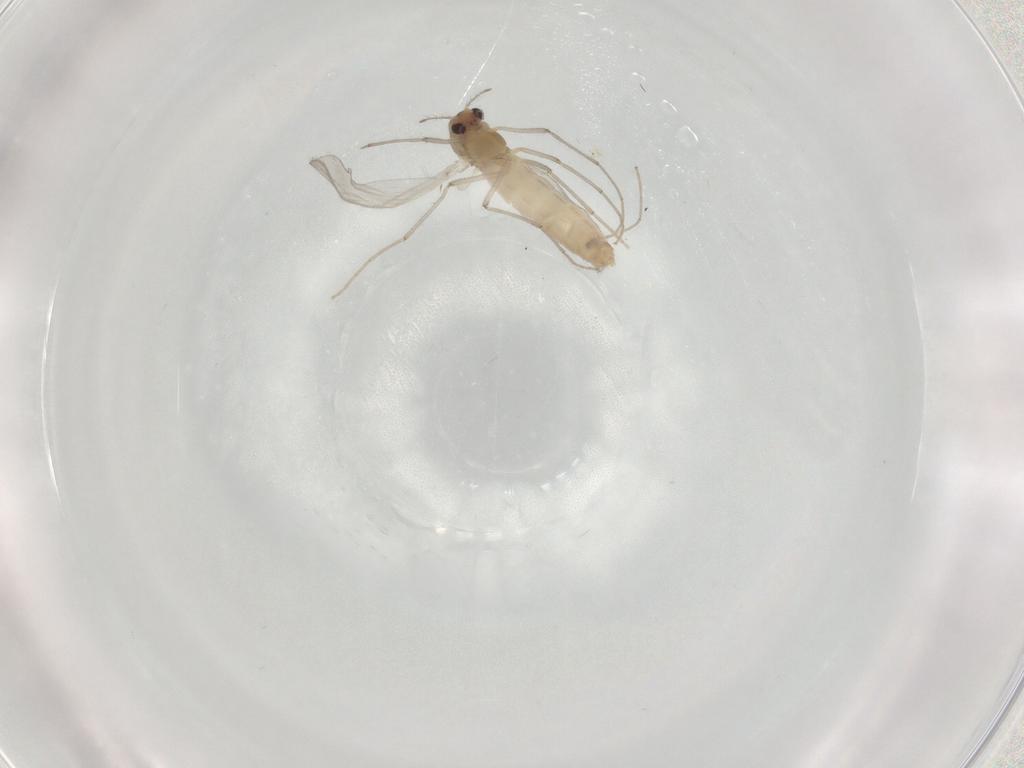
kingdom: Animalia
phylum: Arthropoda
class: Insecta
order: Diptera
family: Chironomidae
